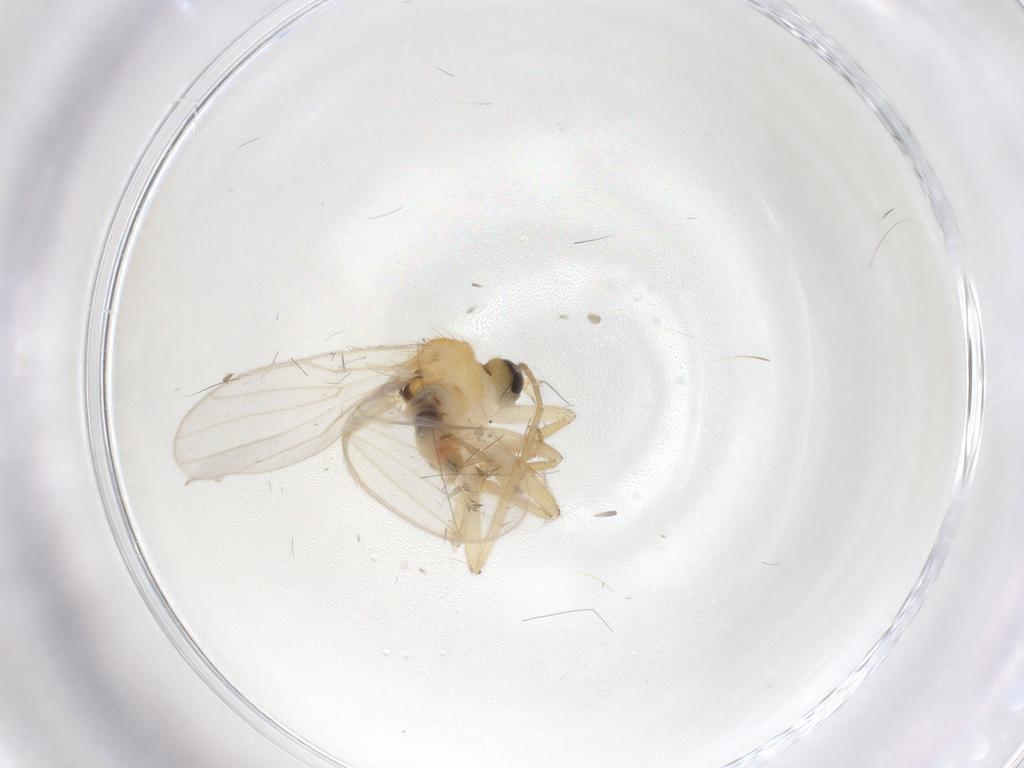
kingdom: Animalia
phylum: Arthropoda
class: Insecta
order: Diptera
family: Hybotidae
